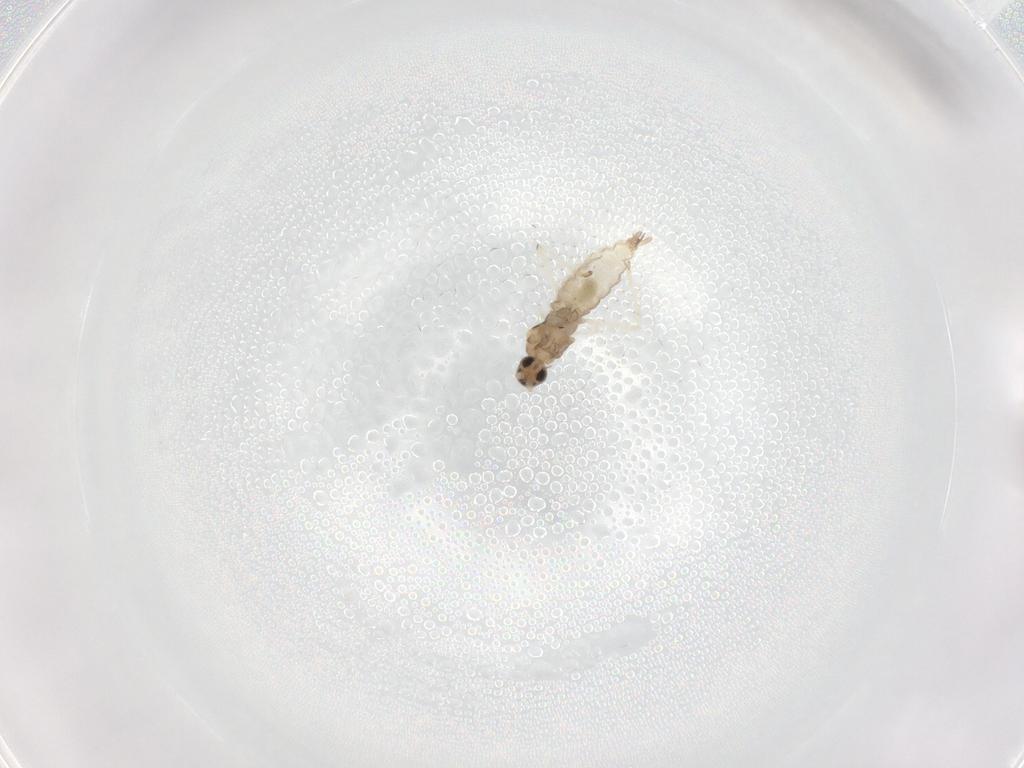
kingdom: Animalia
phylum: Arthropoda
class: Insecta
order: Diptera
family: Cecidomyiidae
